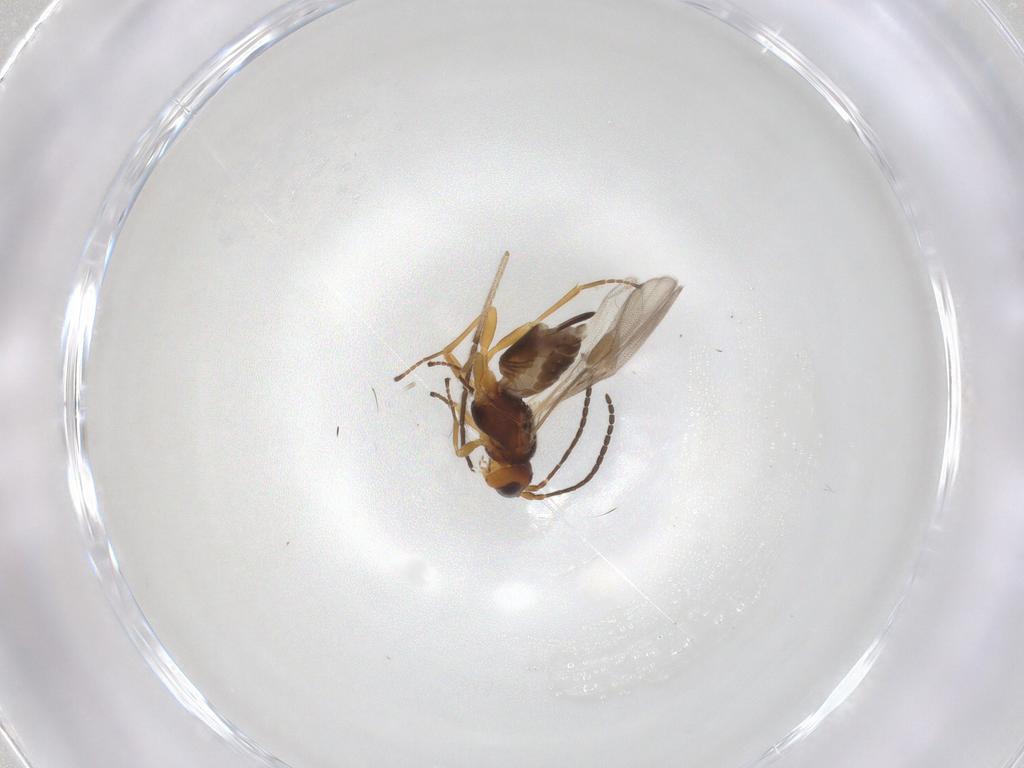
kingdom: Animalia
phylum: Arthropoda
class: Insecta
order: Hymenoptera
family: Braconidae
